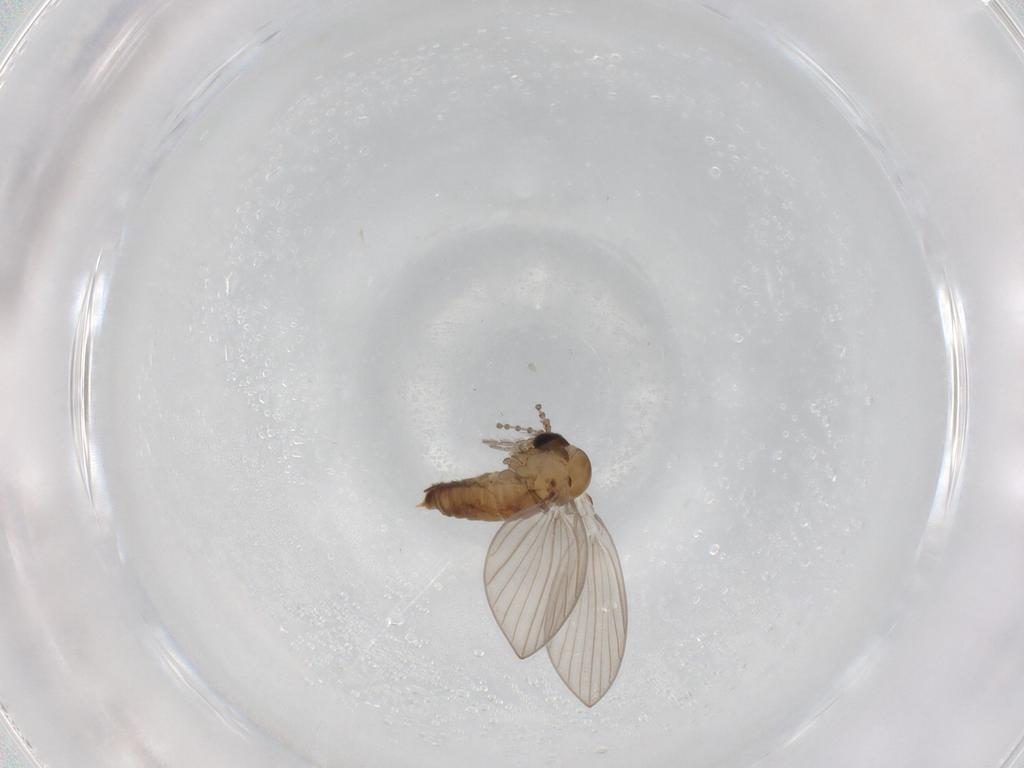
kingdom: Animalia
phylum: Arthropoda
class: Insecta
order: Diptera
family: Psychodidae
